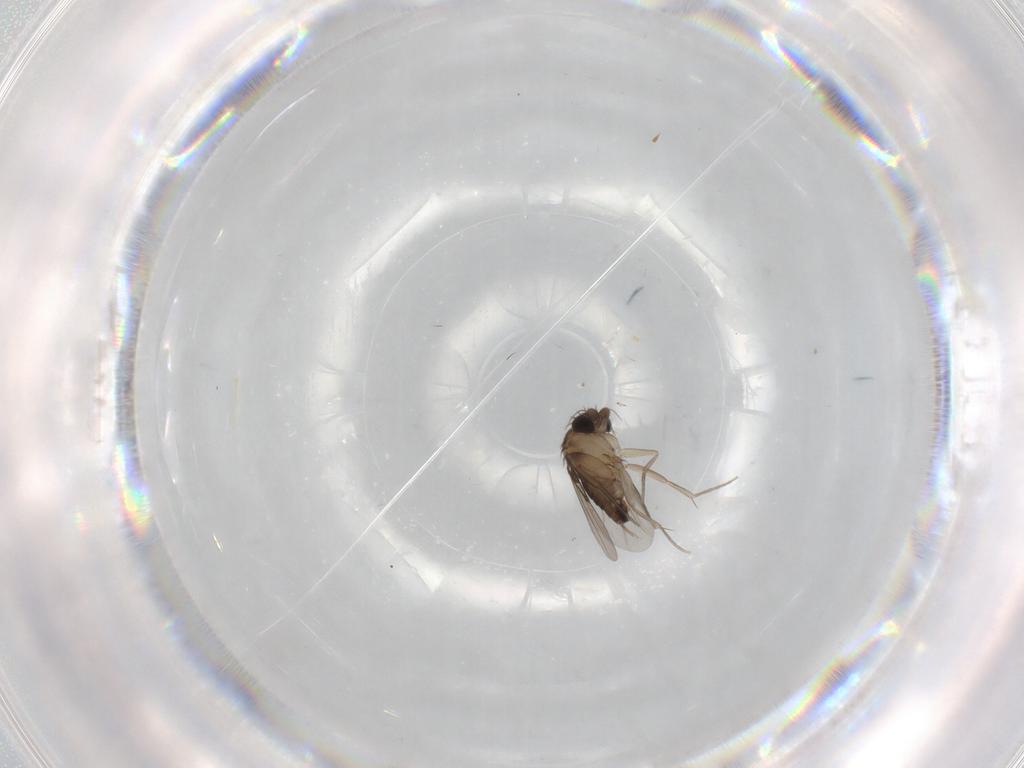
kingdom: Animalia
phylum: Arthropoda
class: Insecta
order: Diptera
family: Phoridae
